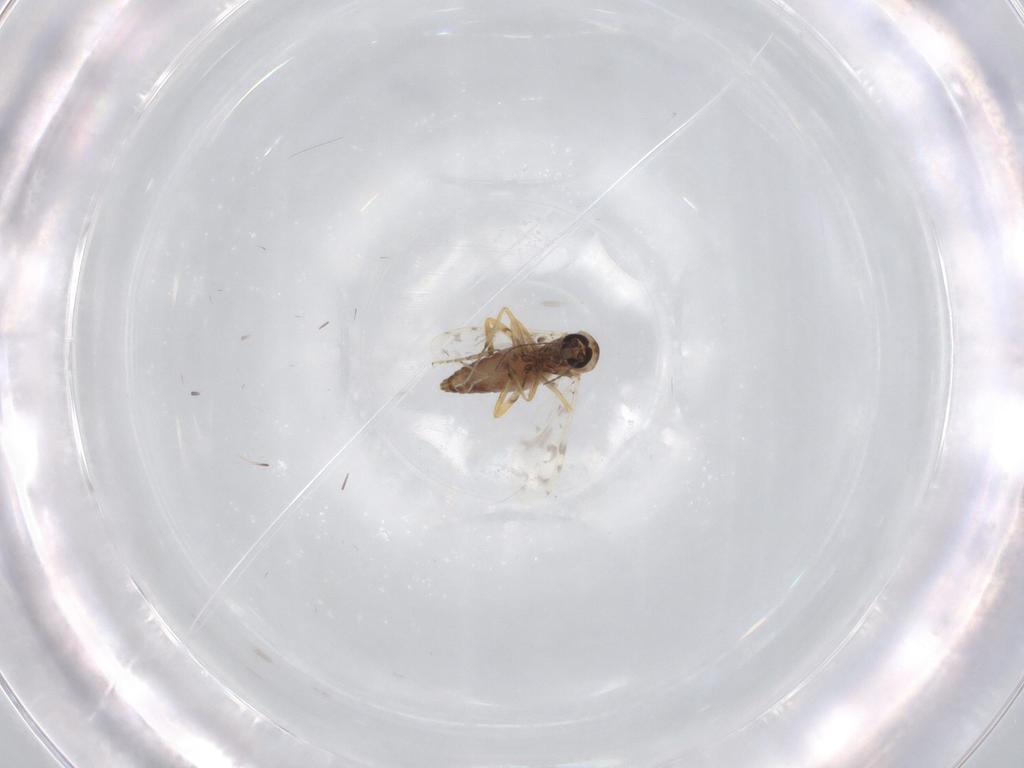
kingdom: Animalia
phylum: Arthropoda
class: Insecta
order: Diptera
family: Ceratopogonidae
